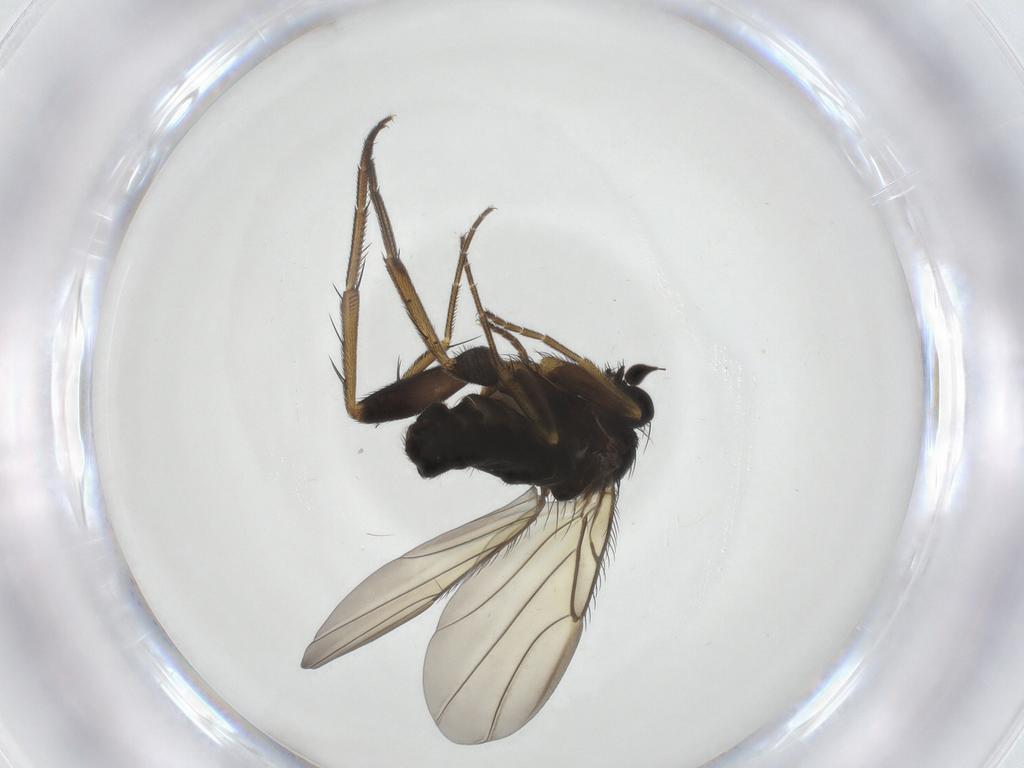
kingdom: Animalia
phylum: Arthropoda
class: Insecta
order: Diptera
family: Phoridae
